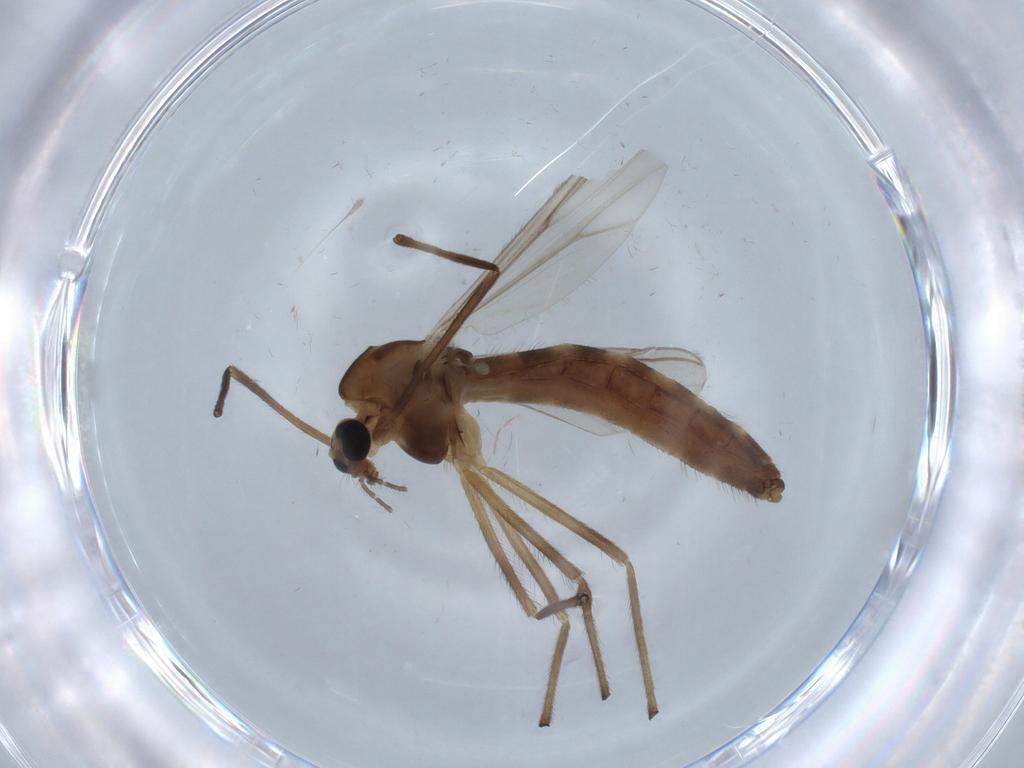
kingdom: Animalia
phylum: Arthropoda
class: Insecta
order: Diptera
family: Chironomidae
